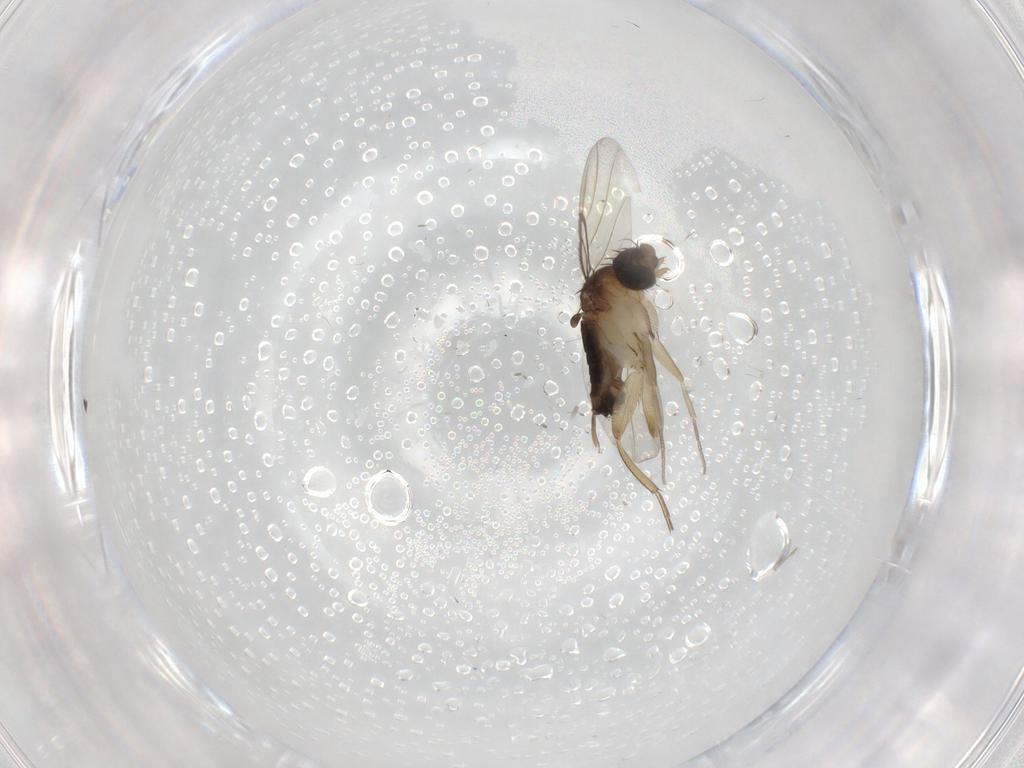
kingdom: Animalia
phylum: Arthropoda
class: Insecta
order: Diptera
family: Phoridae
